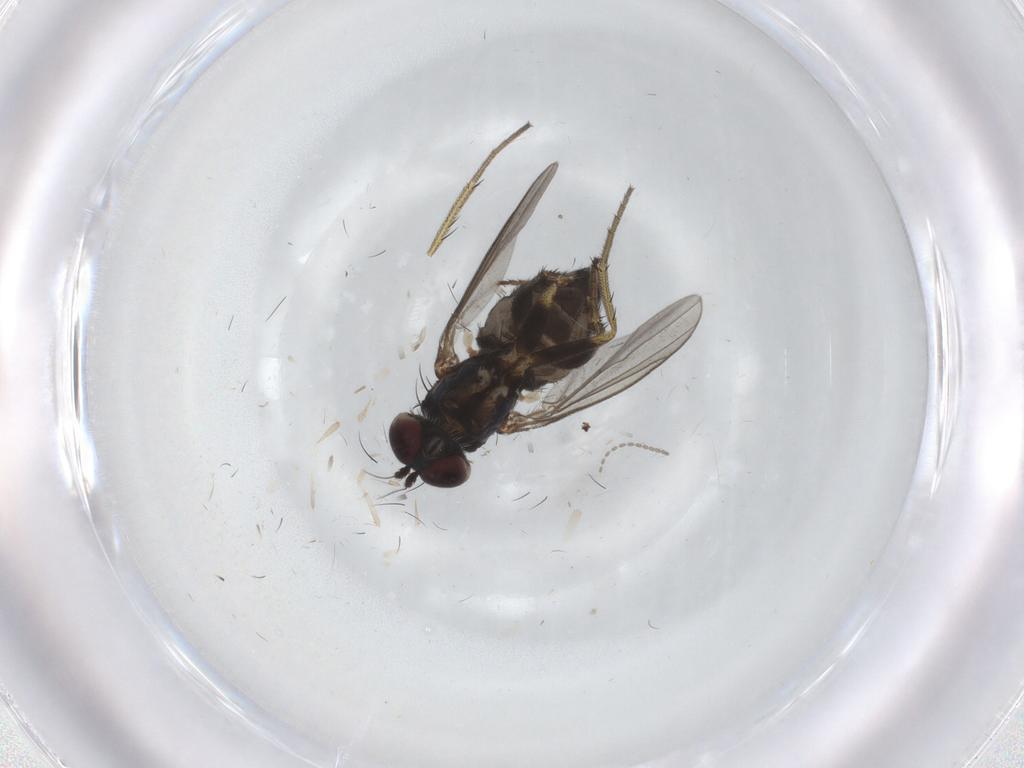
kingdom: Animalia
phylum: Arthropoda
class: Insecta
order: Diptera
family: Cecidomyiidae
